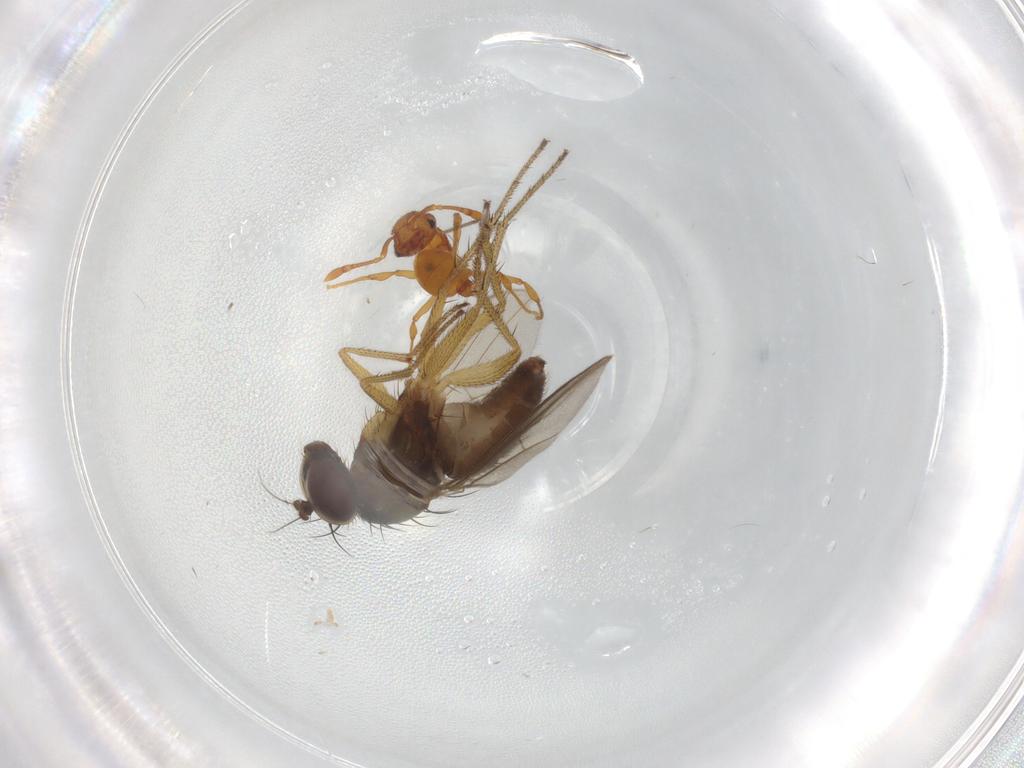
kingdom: Animalia
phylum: Arthropoda
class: Insecta
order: Diptera
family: Dolichopodidae
